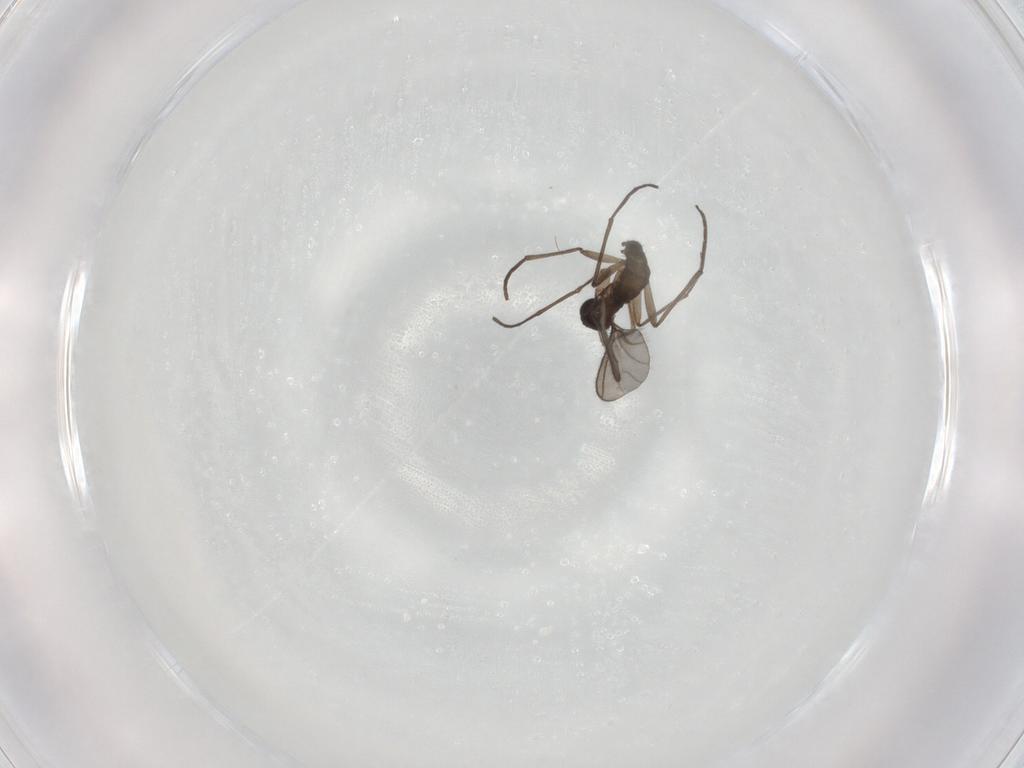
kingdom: Animalia
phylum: Arthropoda
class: Insecta
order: Diptera
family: Sciaridae
